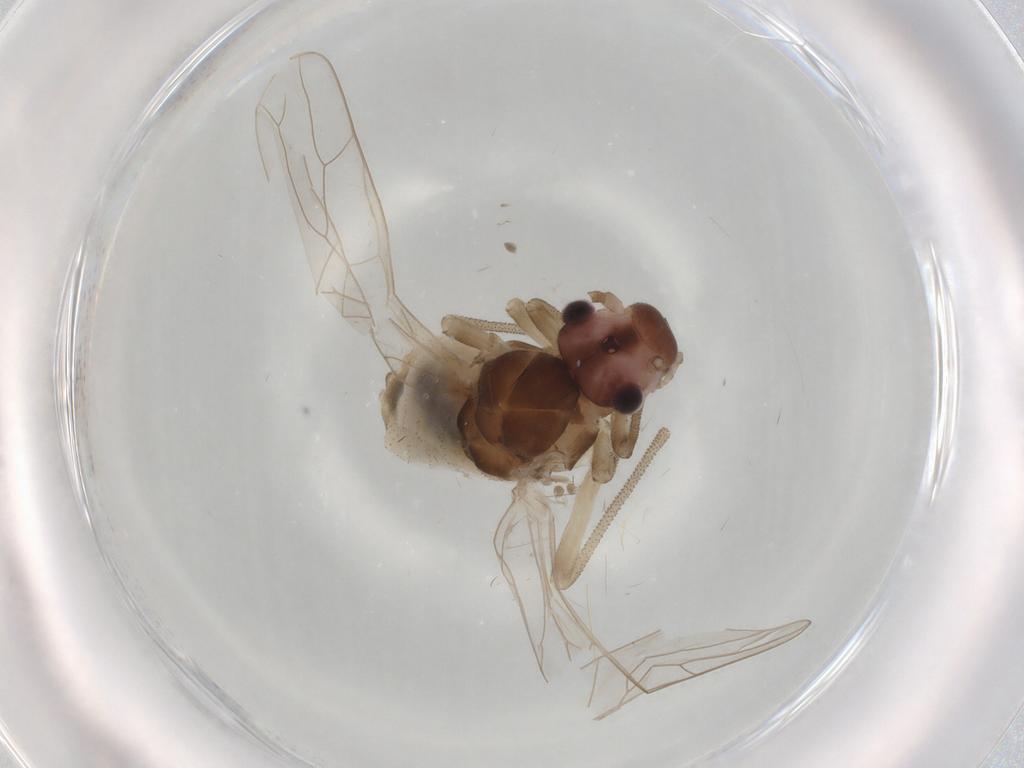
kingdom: Animalia
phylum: Arthropoda
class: Insecta
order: Psocodea
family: Stenopsocidae
